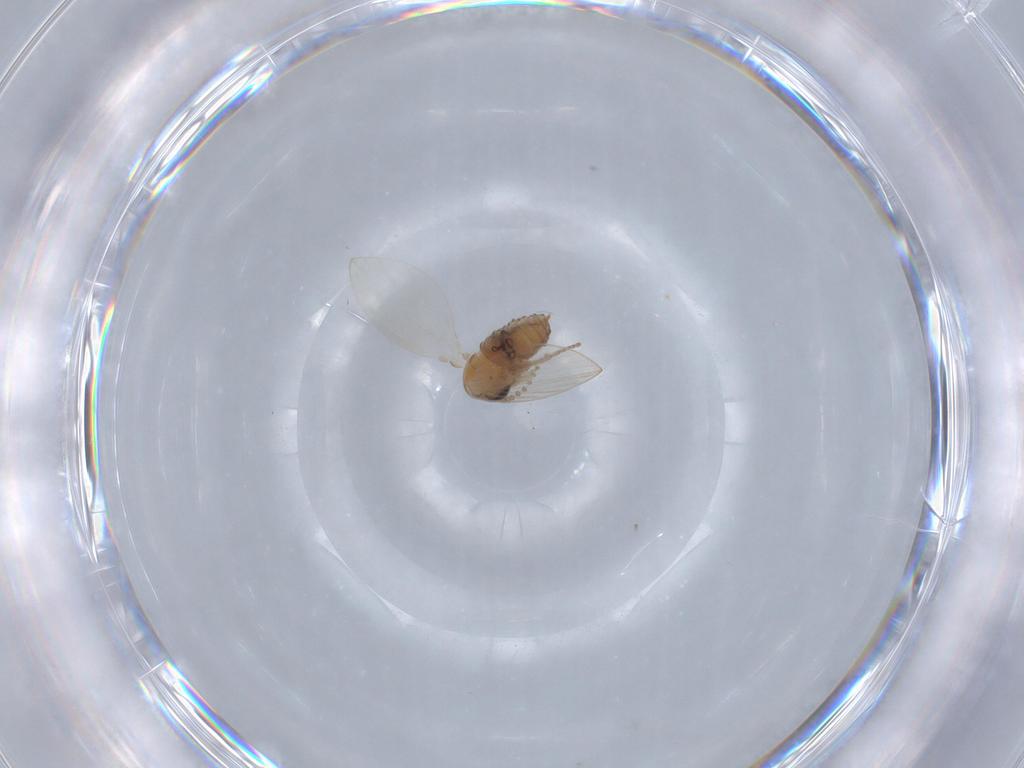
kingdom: Animalia
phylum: Arthropoda
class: Insecta
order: Diptera
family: Psychodidae
